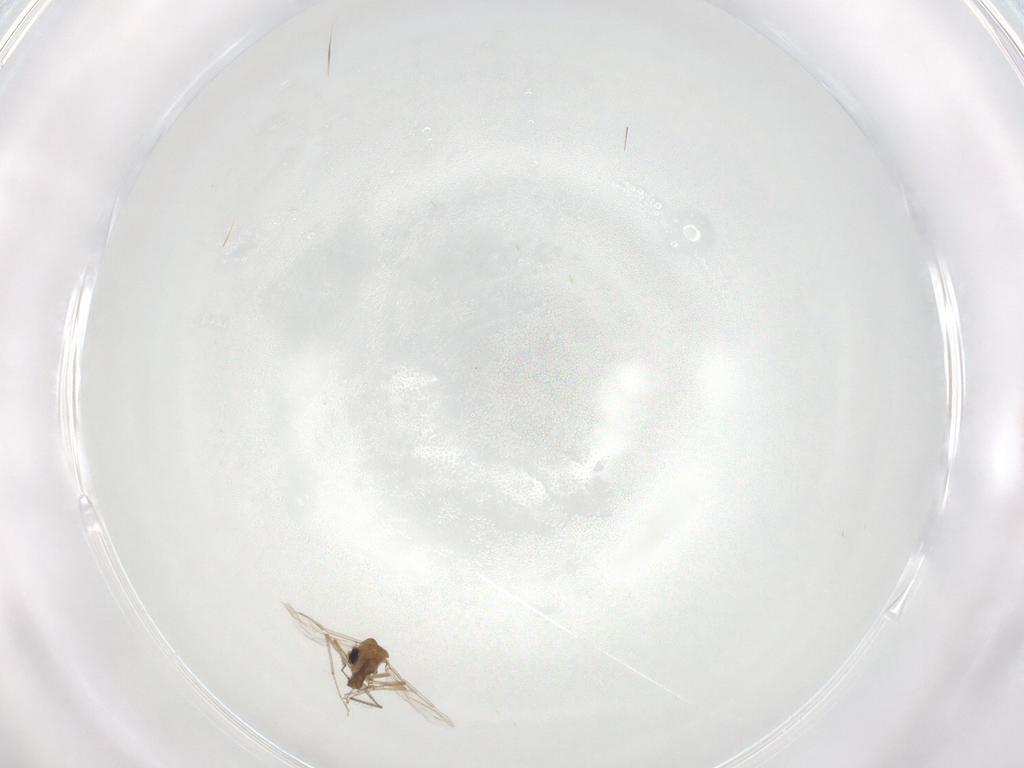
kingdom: Animalia
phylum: Arthropoda
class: Insecta
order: Diptera
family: Ceratopogonidae
